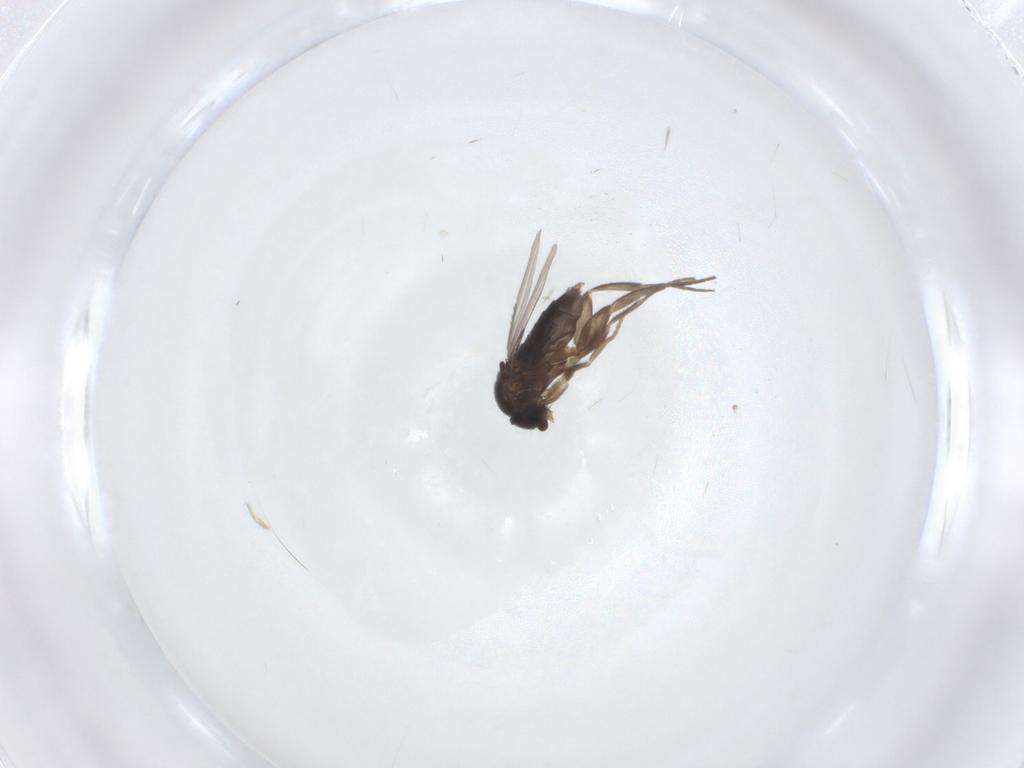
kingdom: Animalia
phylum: Arthropoda
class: Insecta
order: Diptera
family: Phoridae
